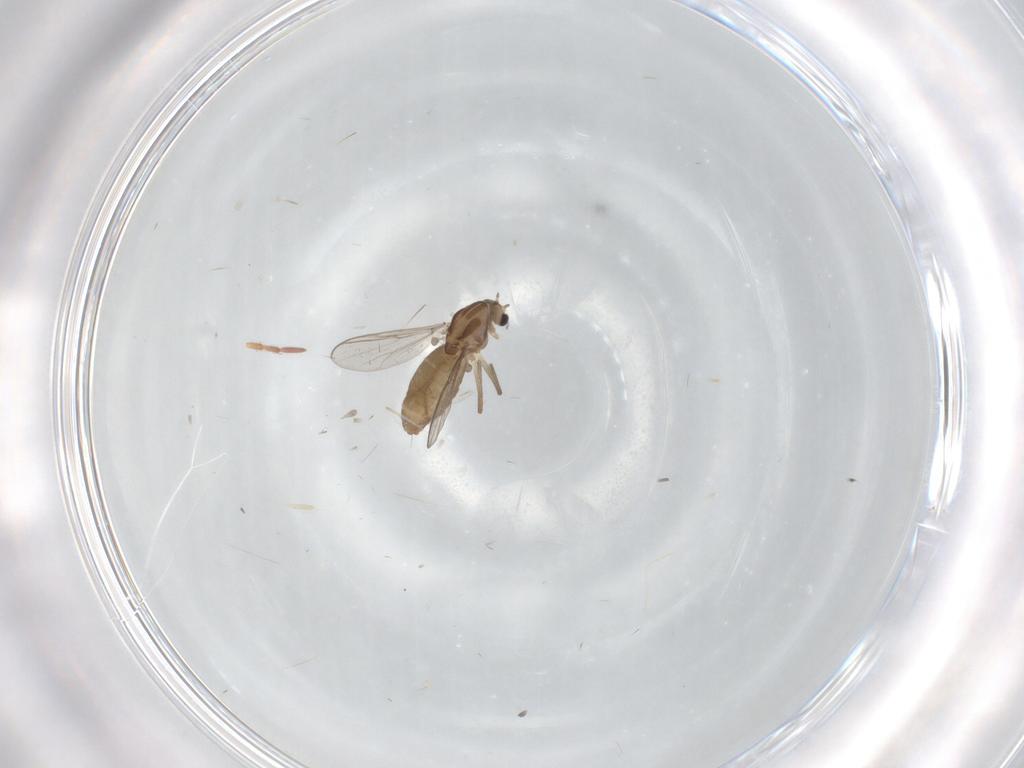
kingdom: Animalia
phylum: Arthropoda
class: Insecta
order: Diptera
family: Chironomidae
